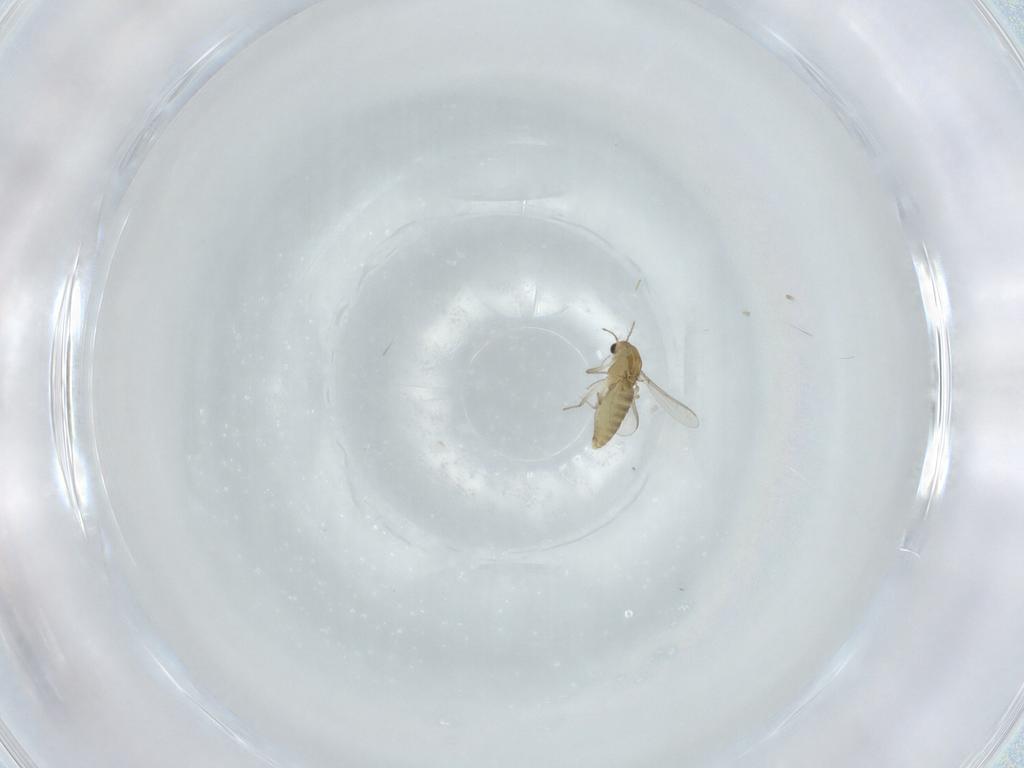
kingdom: Animalia
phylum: Arthropoda
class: Insecta
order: Diptera
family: Chironomidae
